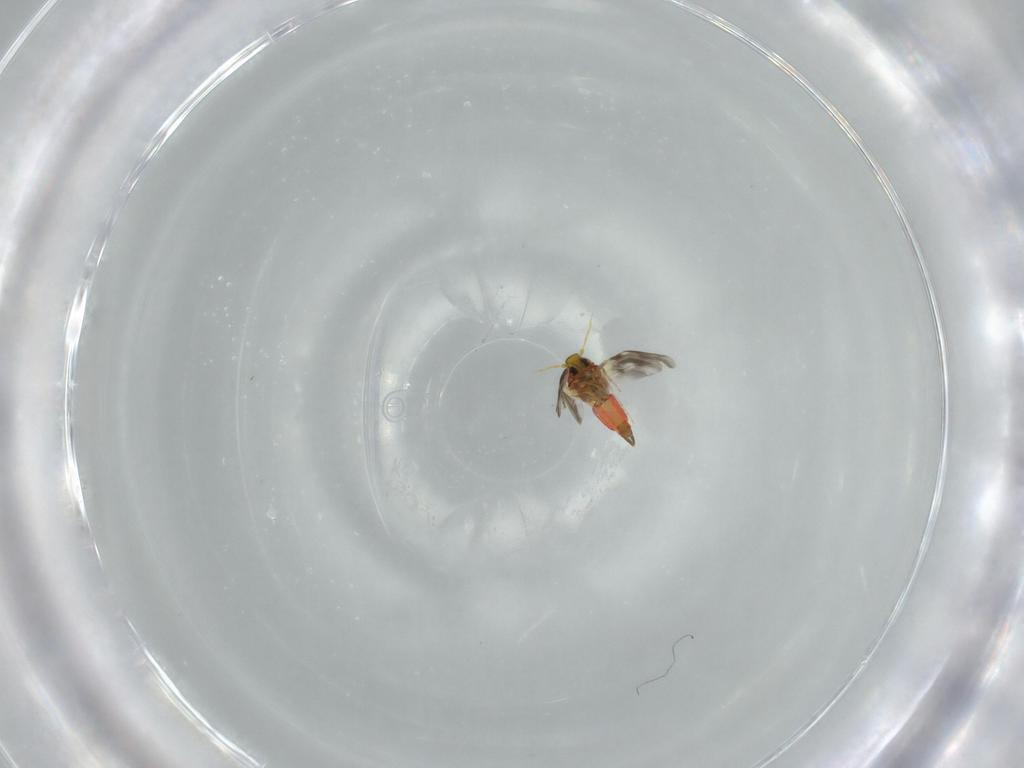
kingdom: Animalia
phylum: Arthropoda
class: Insecta
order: Hemiptera
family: Aleyrodidae
